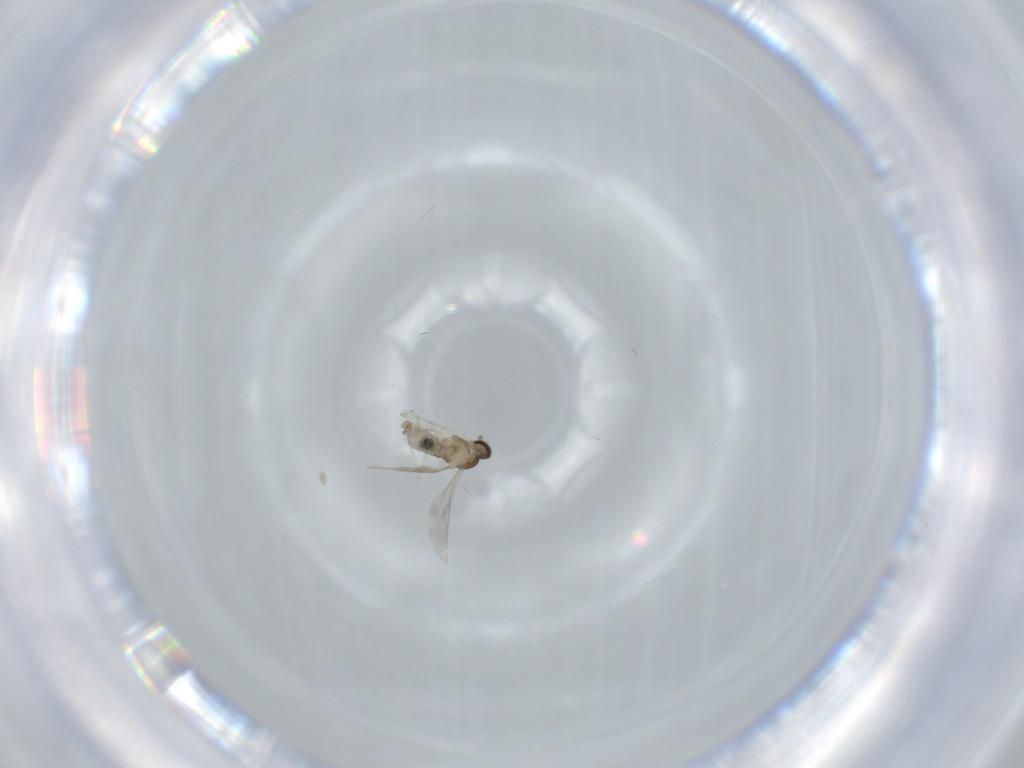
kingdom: Animalia
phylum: Arthropoda
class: Insecta
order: Diptera
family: Cecidomyiidae
